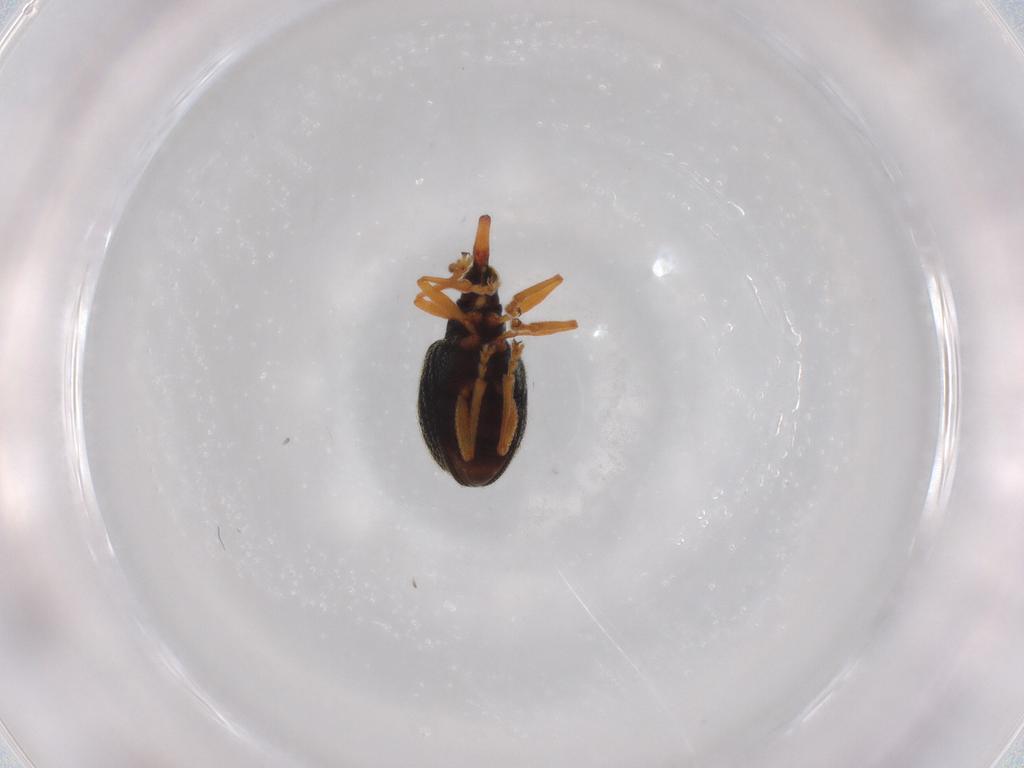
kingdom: Animalia
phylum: Arthropoda
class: Insecta
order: Coleoptera
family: Brentidae
